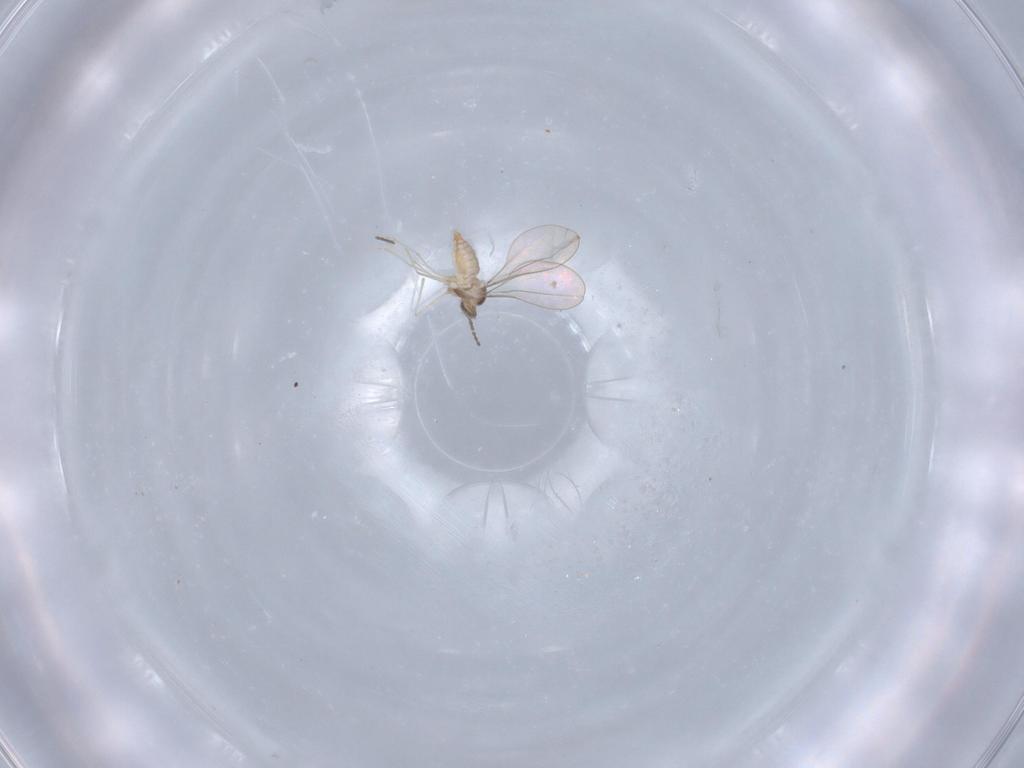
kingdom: Animalia
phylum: Arthropoda
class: Insecta
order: Diptera
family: Cecidomyiidae
